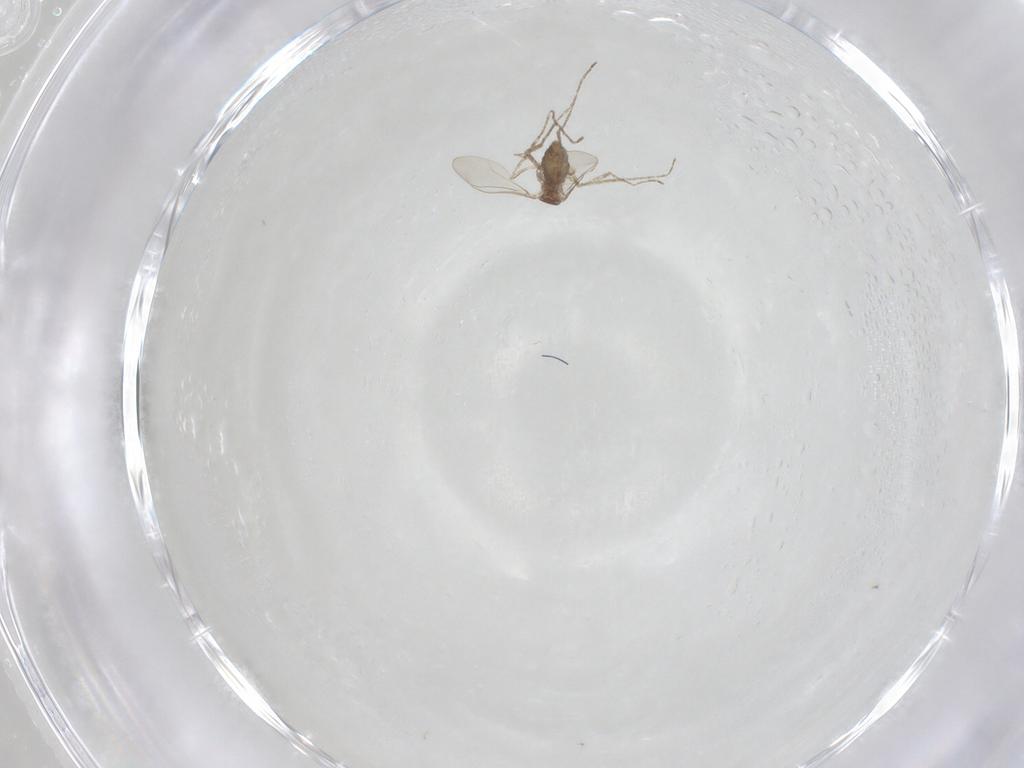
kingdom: Animalia
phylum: Arthropoda
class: Insecta
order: Diptera
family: Cecidomyiidae
